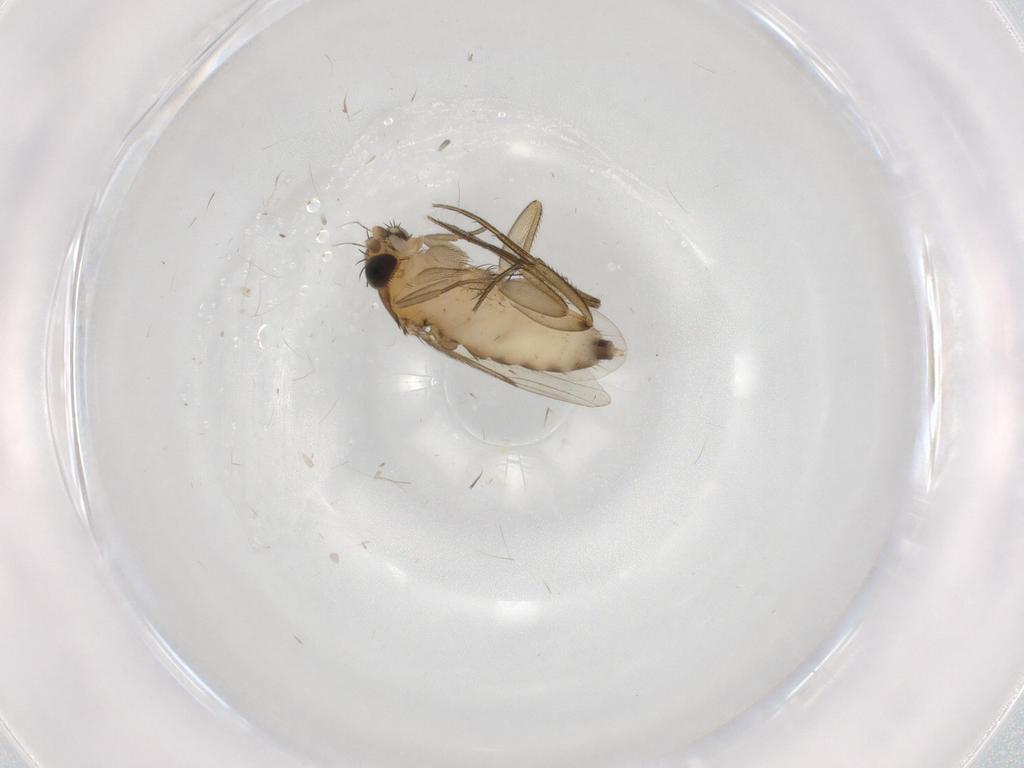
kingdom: Animalia
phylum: Arthropoda
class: Insecta
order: Diptera
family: Phoridae
